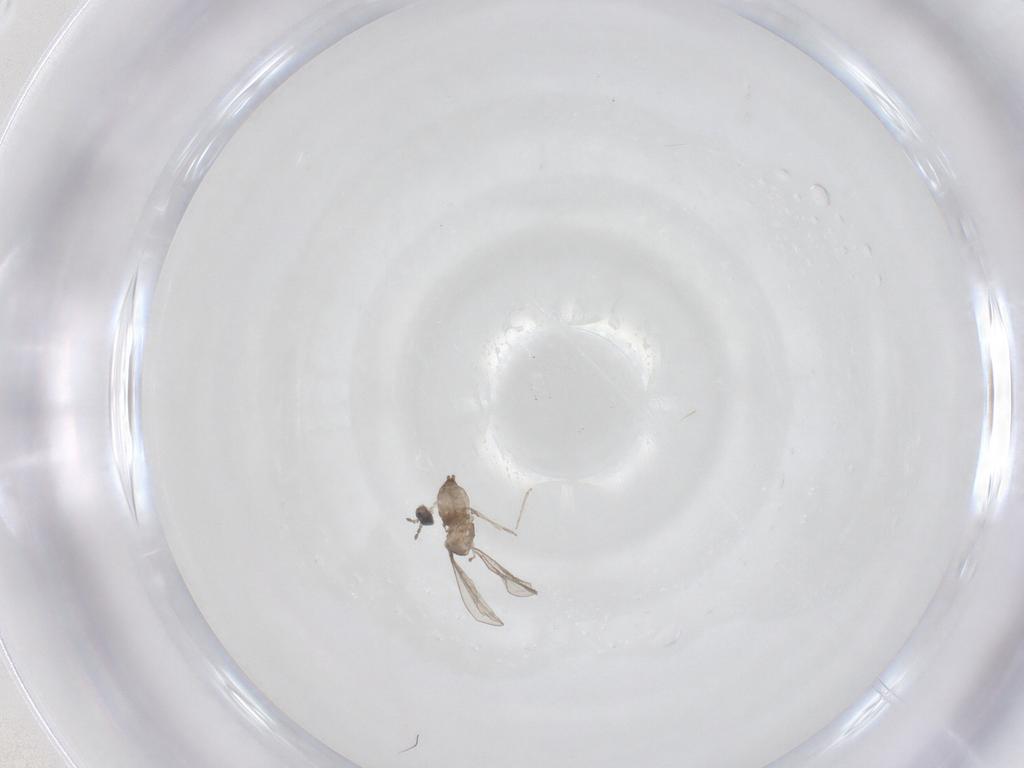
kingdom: Animalia
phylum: Arthropoda
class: Insecta
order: Diptera
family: Cecidomyiidae
